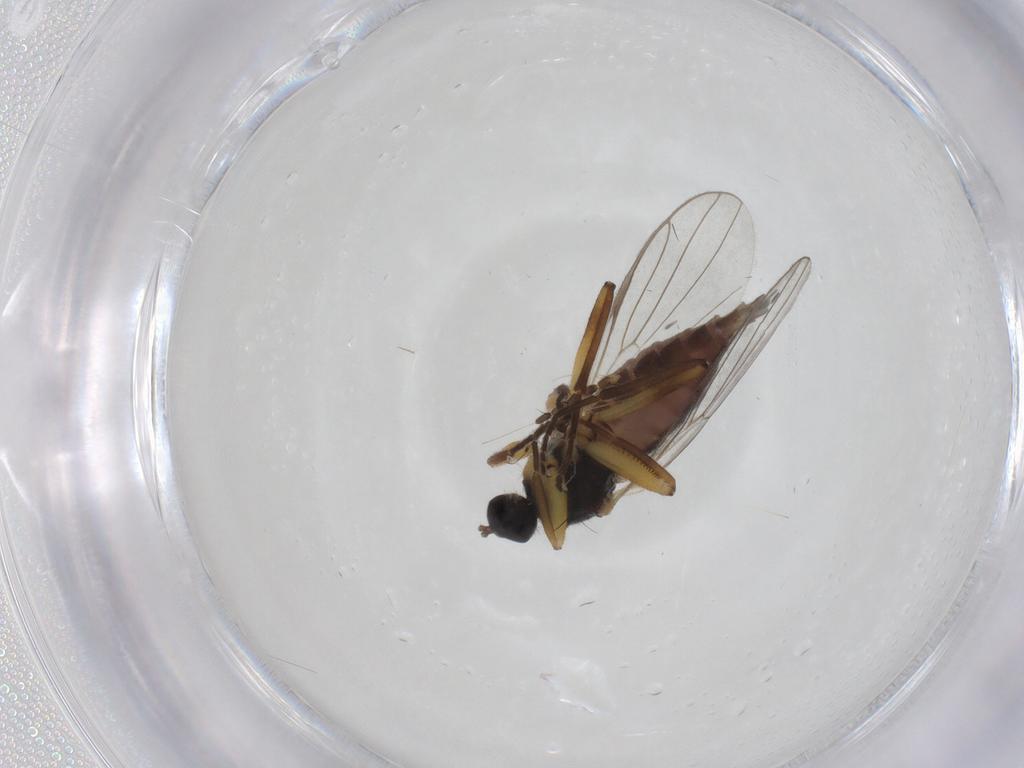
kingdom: Animalia
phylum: Arthropoda
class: Insecta
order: Diptera
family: Hybotidae
